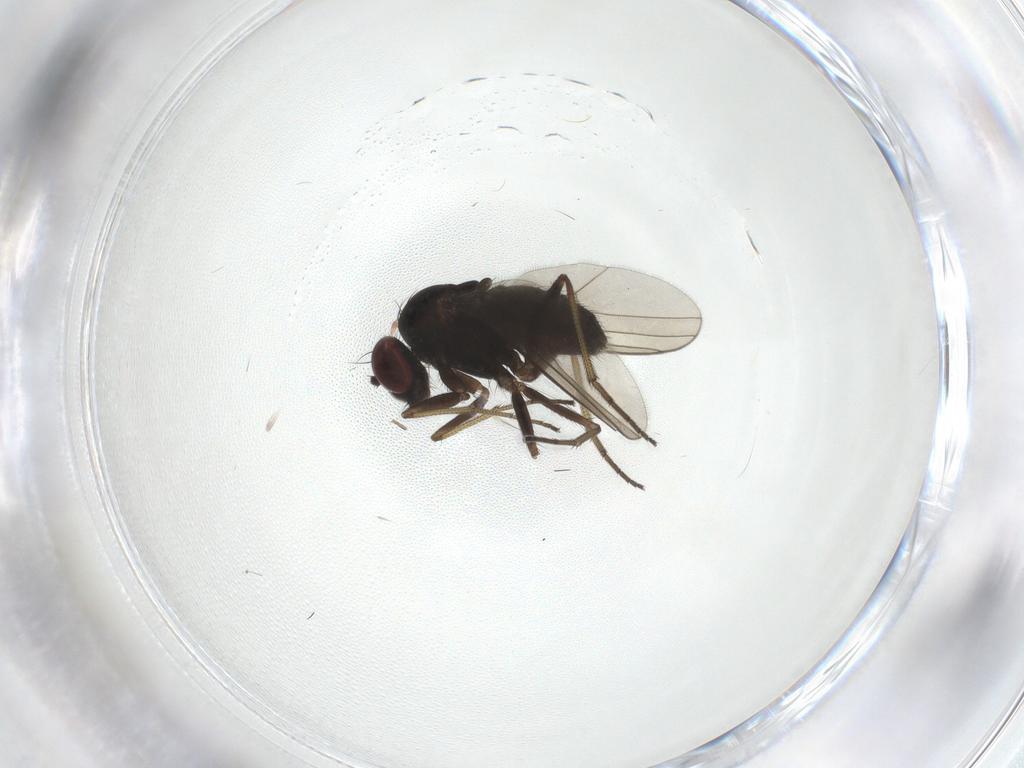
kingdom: Animalia
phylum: Arthropoda
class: Insecta
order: Diptera
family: Dolichopodidae
